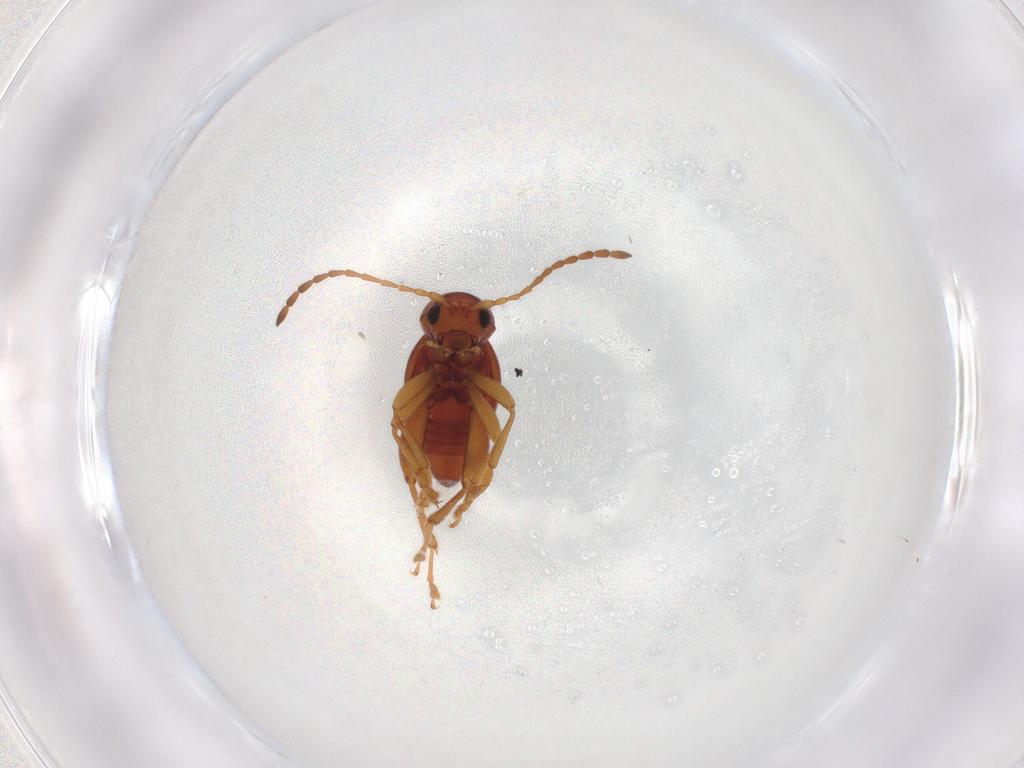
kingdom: Animalia
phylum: Arthropoda
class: Insecta
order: Coleoptera
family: Chrysomelidae
